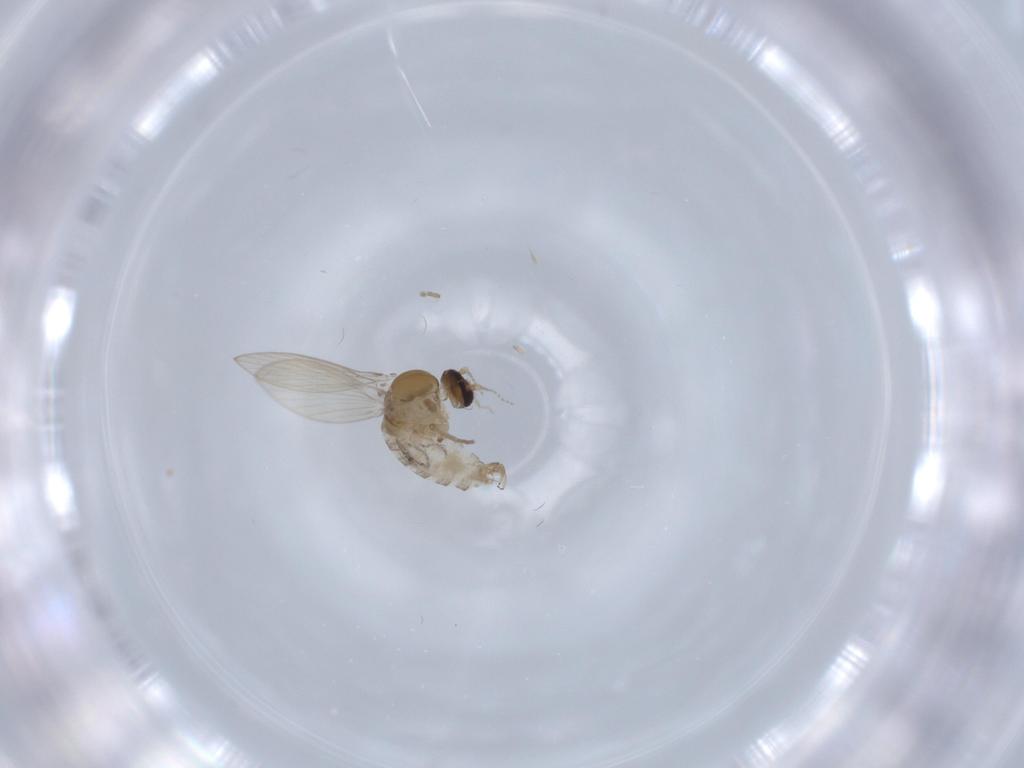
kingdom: Animalia
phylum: Arthropoda
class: Insecta
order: Diptera
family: Psychodidae
